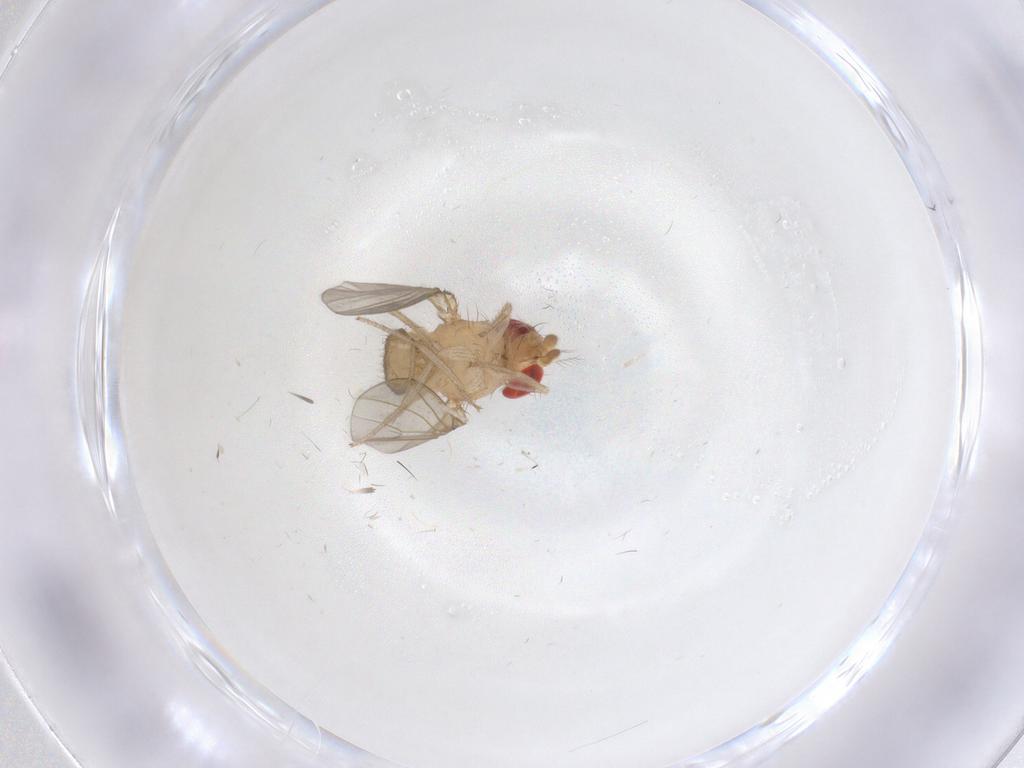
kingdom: Animalia
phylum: Arthropoda
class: Insecta
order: Diptera
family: Drosophilidae
